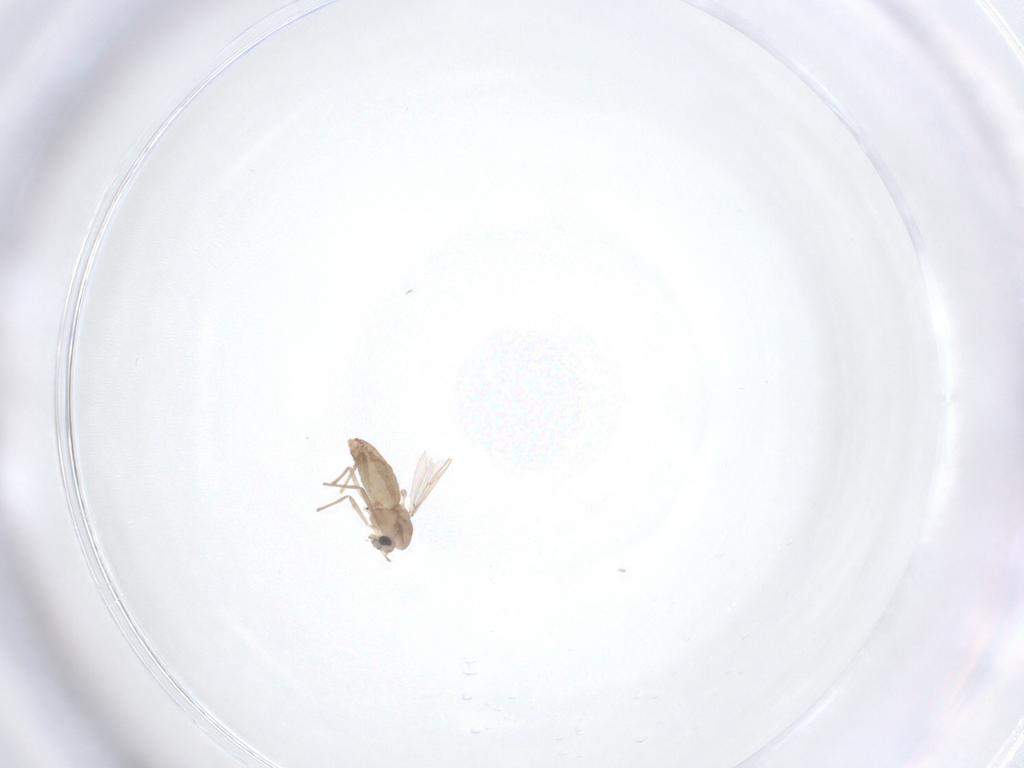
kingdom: Animalia
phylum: Arthropoda
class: Insecta
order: Diptera
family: Chironomidae
